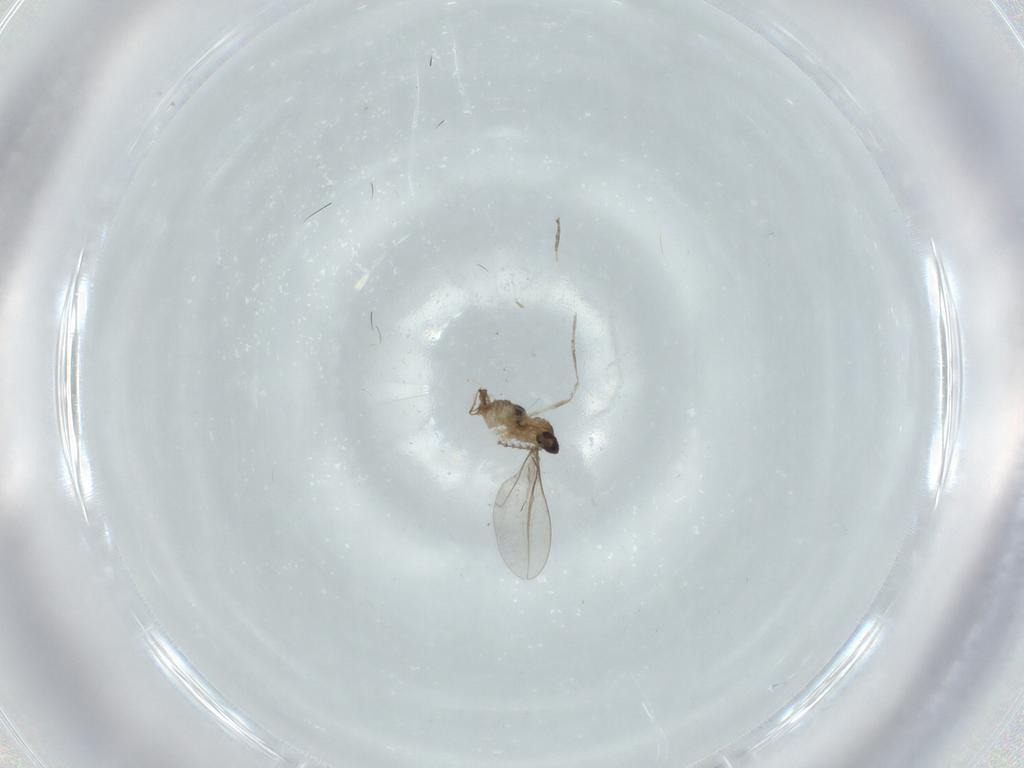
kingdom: Animalia
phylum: Arthropoda
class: Insecta
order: Diptera
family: Cecidomyiidae
